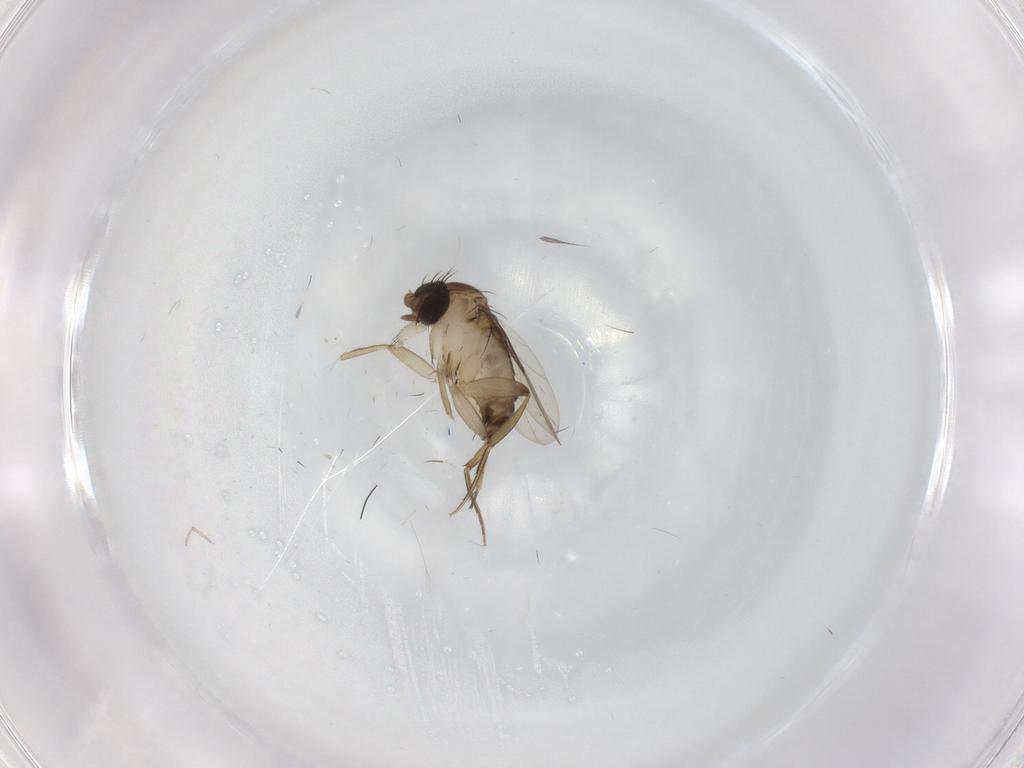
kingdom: Animalia
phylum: Arthropoda
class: Insecta
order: Diptera
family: Phoridae
